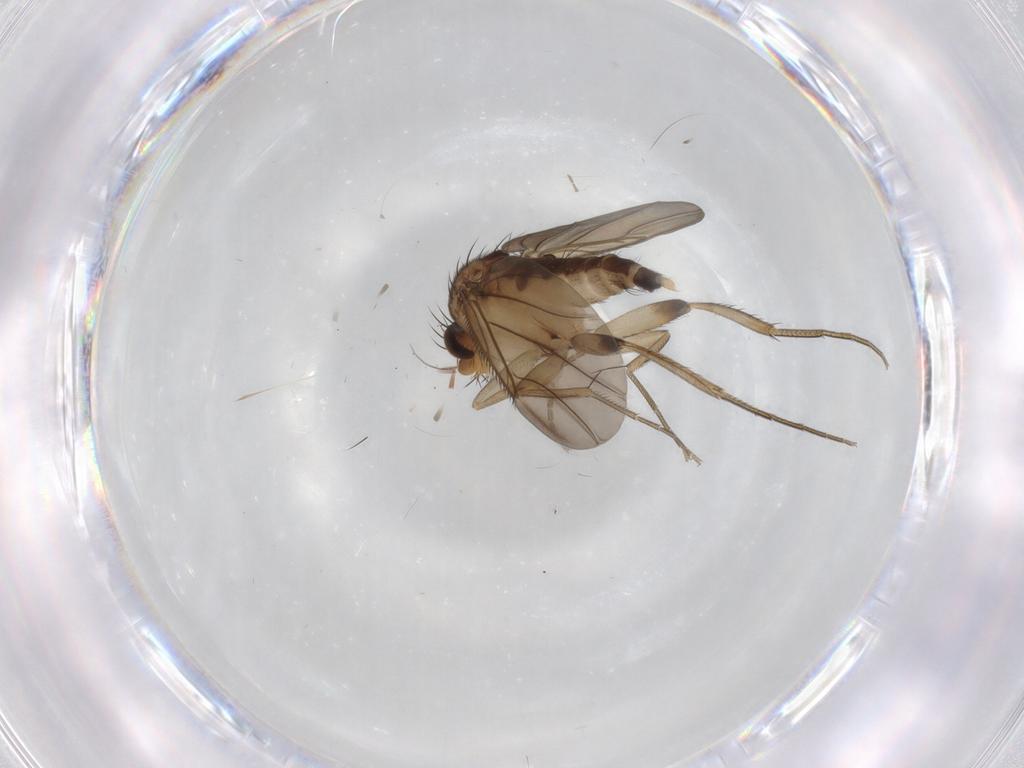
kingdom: Animalia
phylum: Arthropoda
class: Insecta
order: Diptera
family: Phoridae
